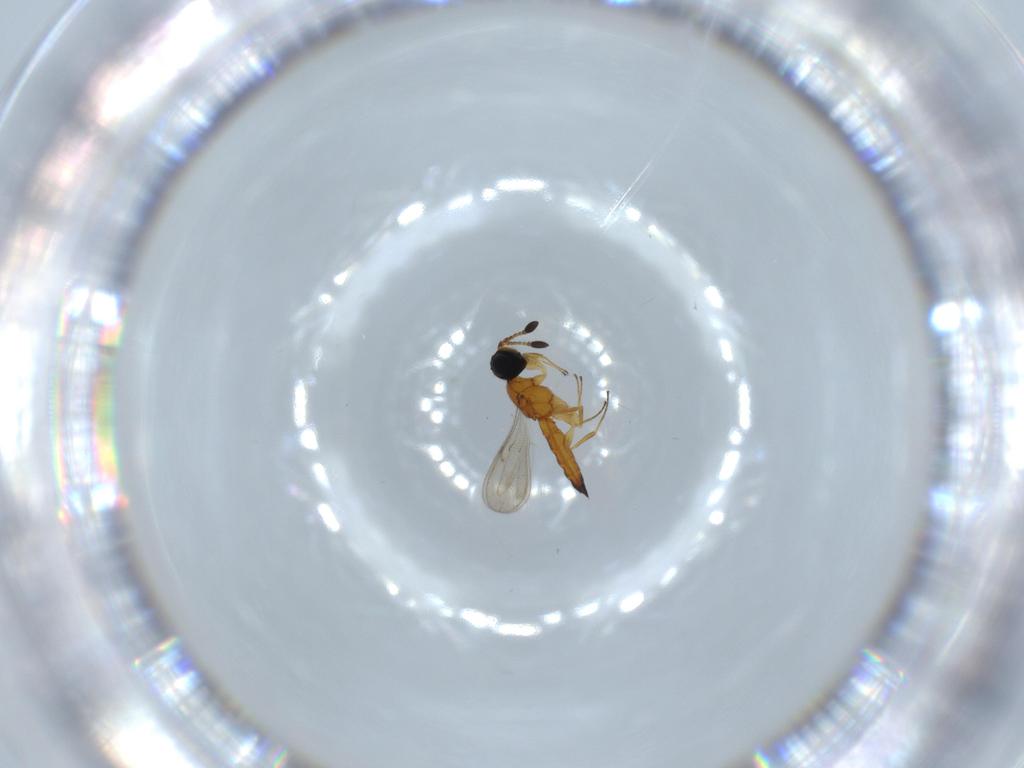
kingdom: Animalia
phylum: Arthropoda
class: Insecta
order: Hymenoptera
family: Scelionidae
